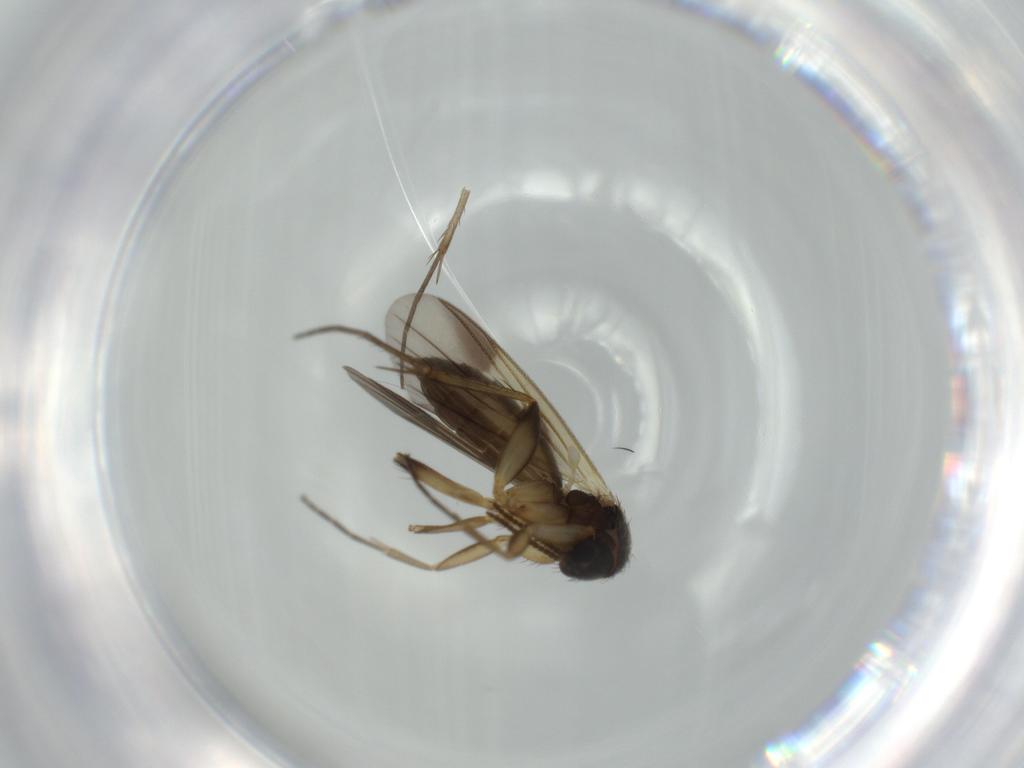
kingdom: Animalia
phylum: Arthropoda
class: Insecta
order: Diptera
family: Mycetophilidae
